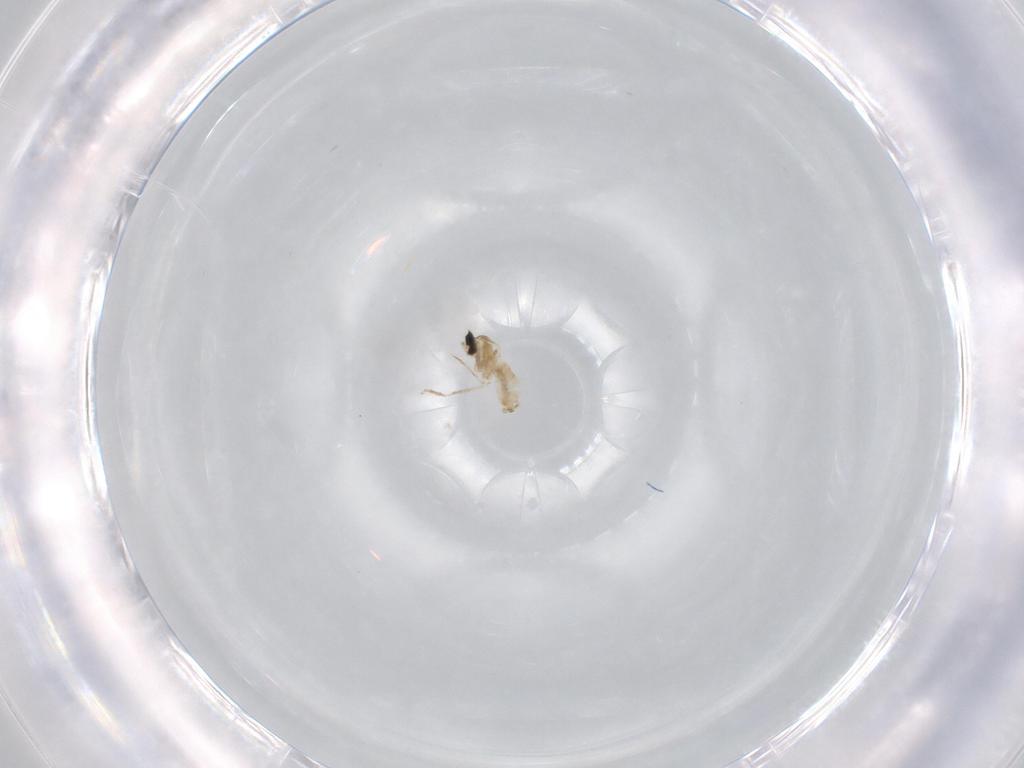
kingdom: Animalia
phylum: Arthropoda
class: Insecta
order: Diptera
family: Cecidomyiidae
